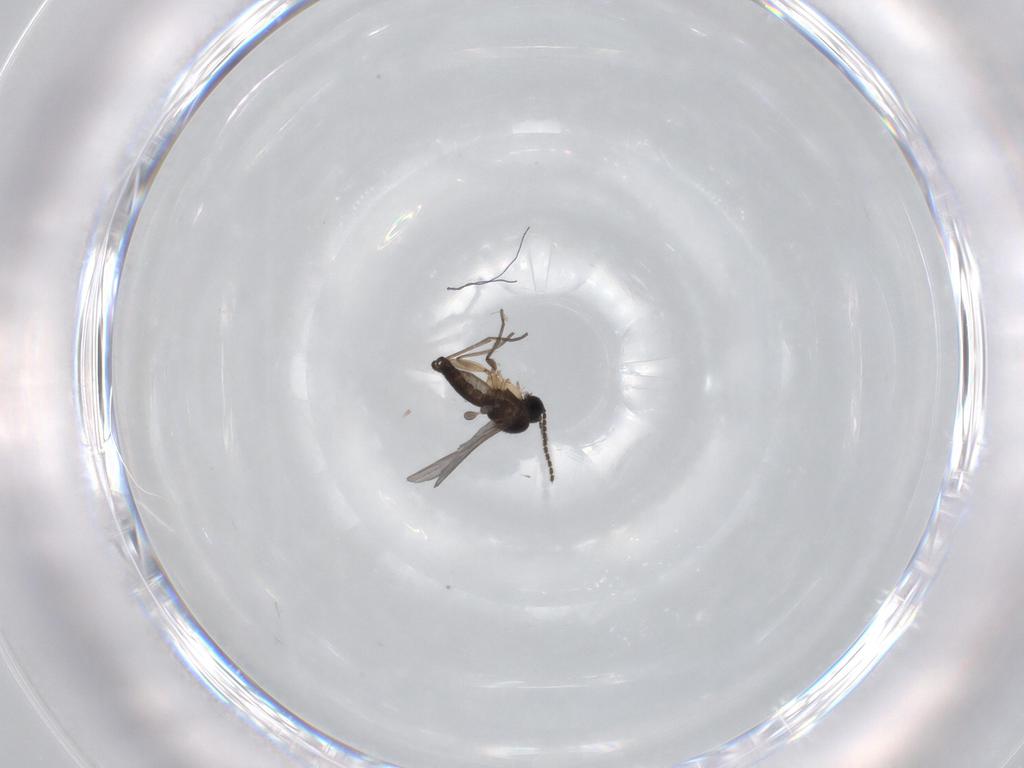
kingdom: Animalia
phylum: Arthropoda
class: Insecta
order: Diptera
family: Sciaridae
